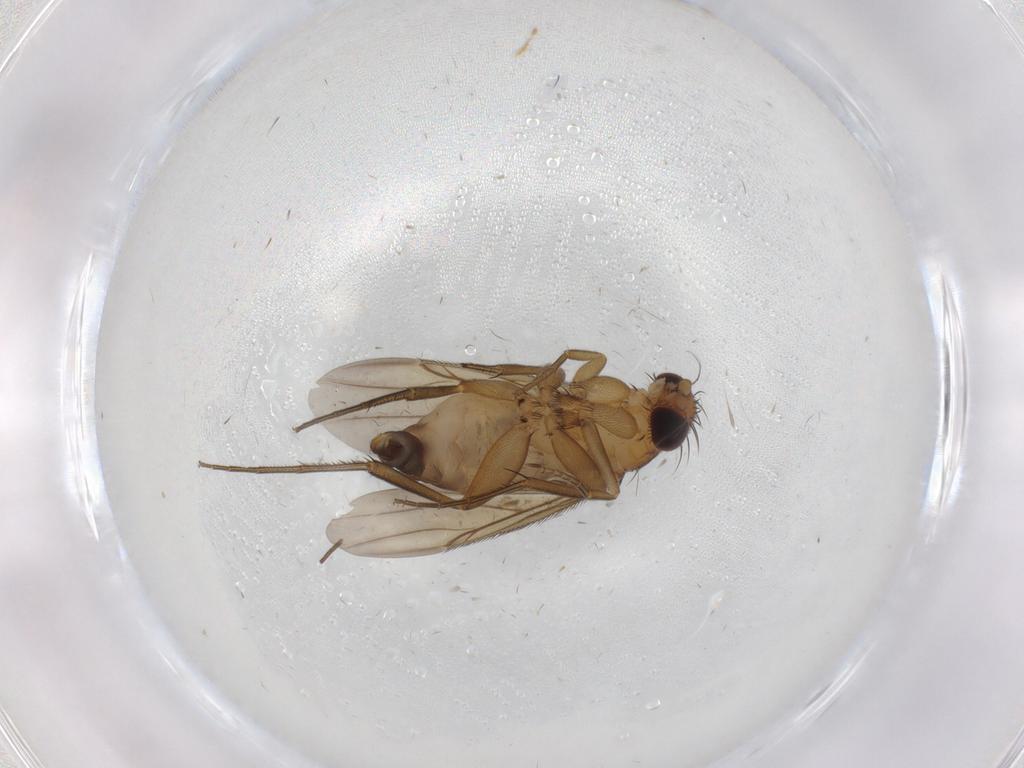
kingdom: Animalia
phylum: Arthropoda
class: Insecta
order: Diptera
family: Phoridae
